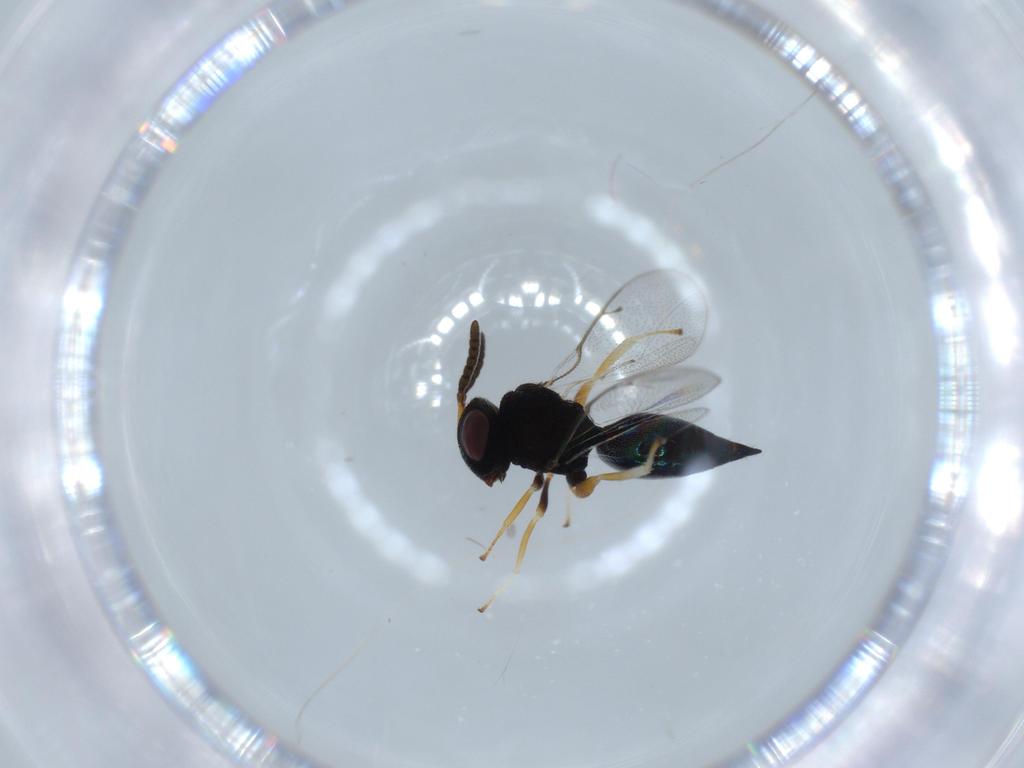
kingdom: Animalia
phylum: Arthropoda
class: Insecta
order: Hymenoptera
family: Pteromalidae
